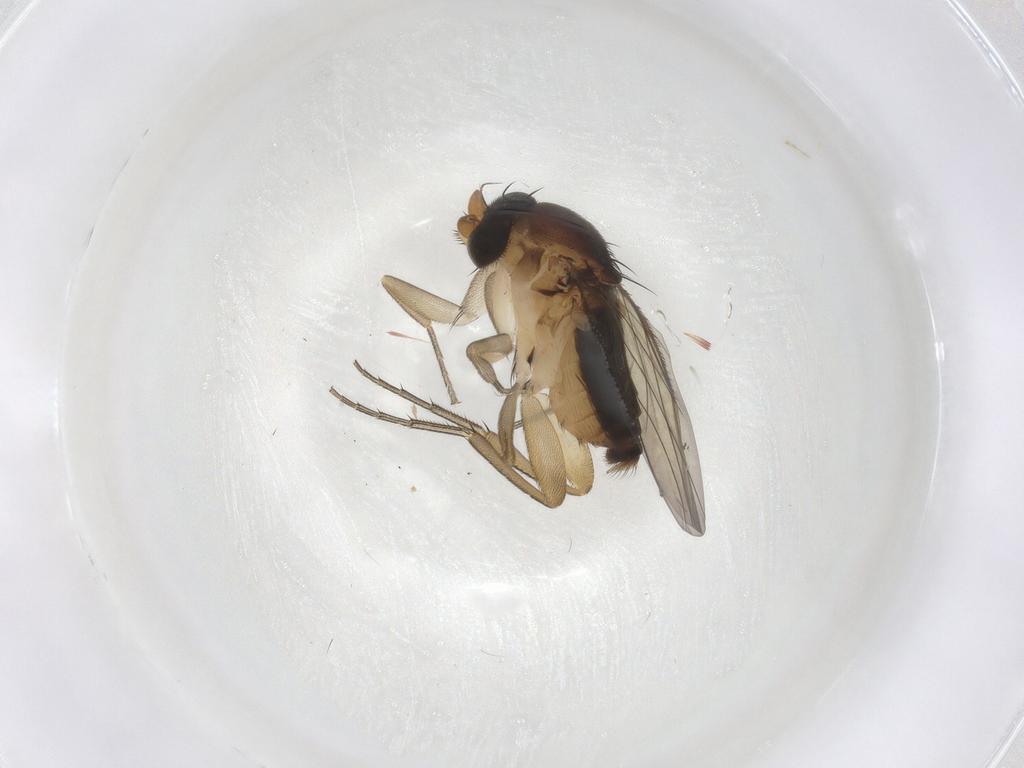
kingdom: Animalia
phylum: Arthropoda
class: Insecta
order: Diptera
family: Phoridae
